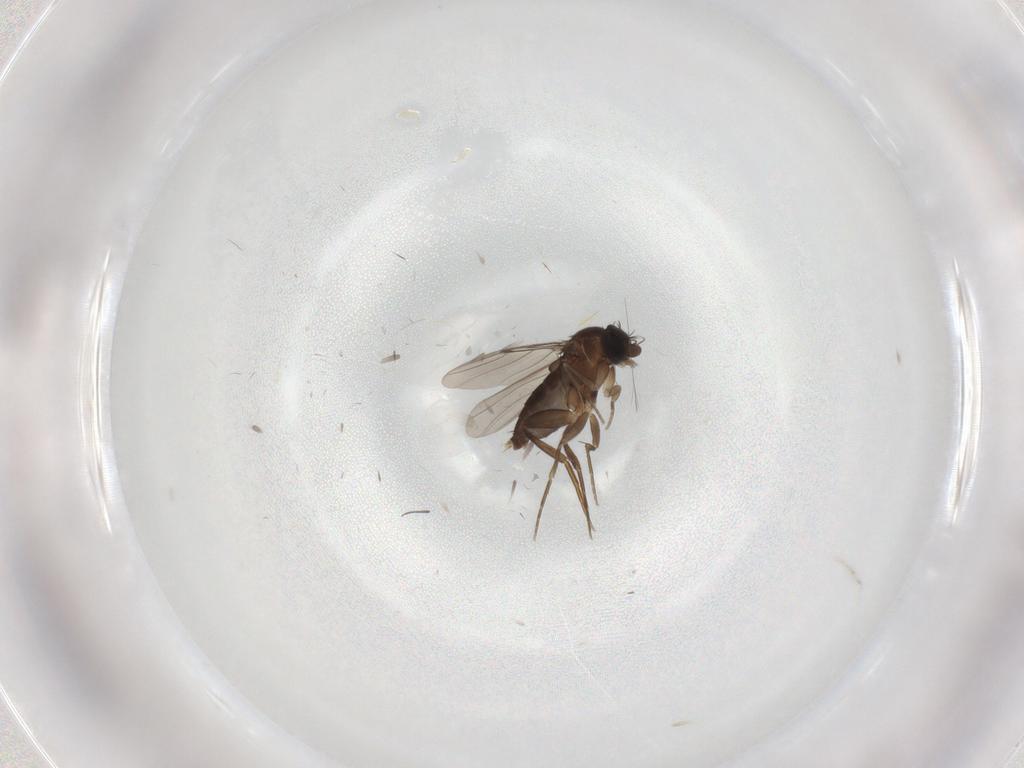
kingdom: Animalia
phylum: Arthropoda
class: Insecta
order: Diptera
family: Phoridae
